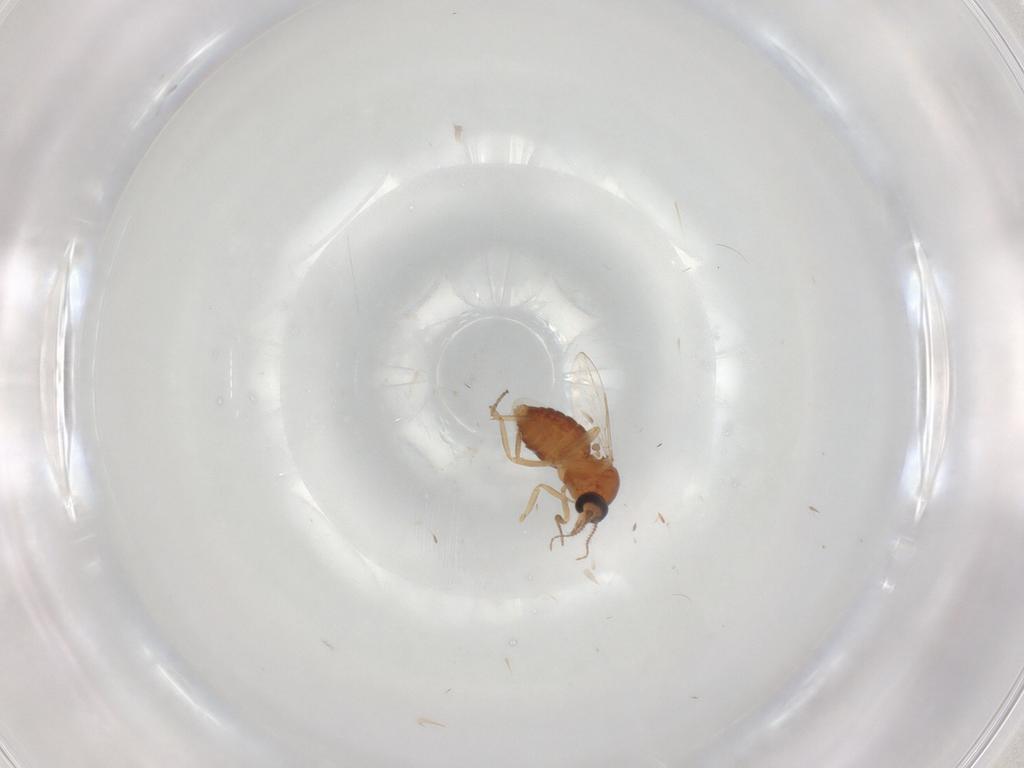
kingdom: Animalia
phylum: Arthropoda
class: Insecta
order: Diptera
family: Ceratopogonidae
